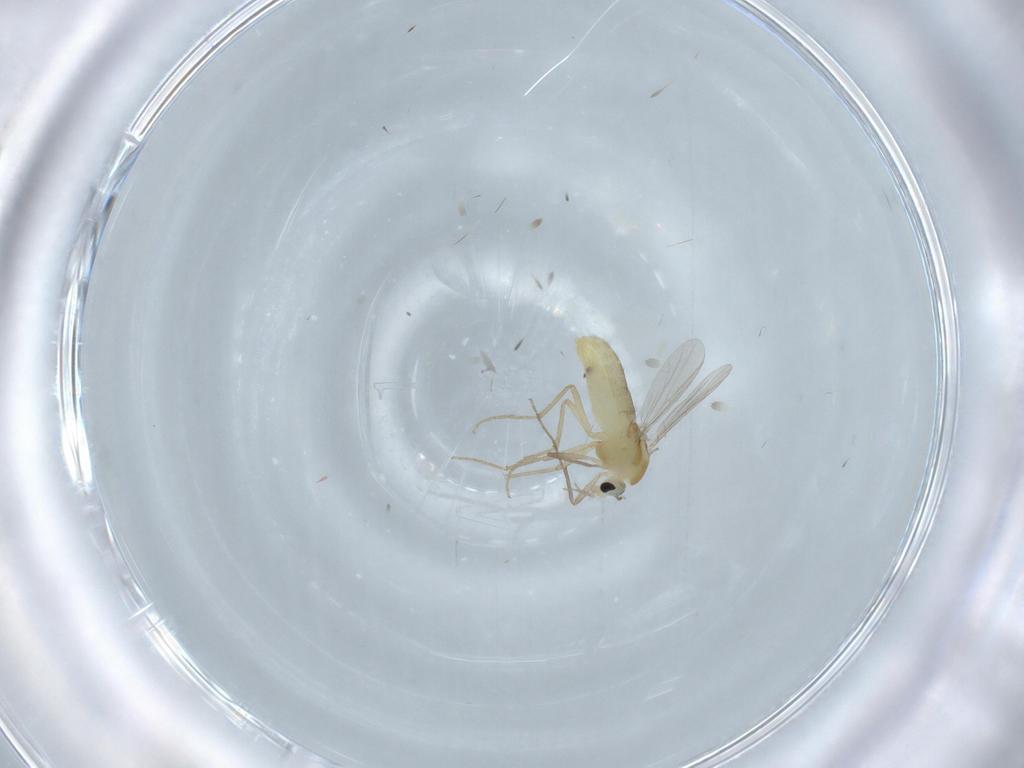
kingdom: Animalia
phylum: Arthropoda
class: Insecta
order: Diptera
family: Chironomidae
